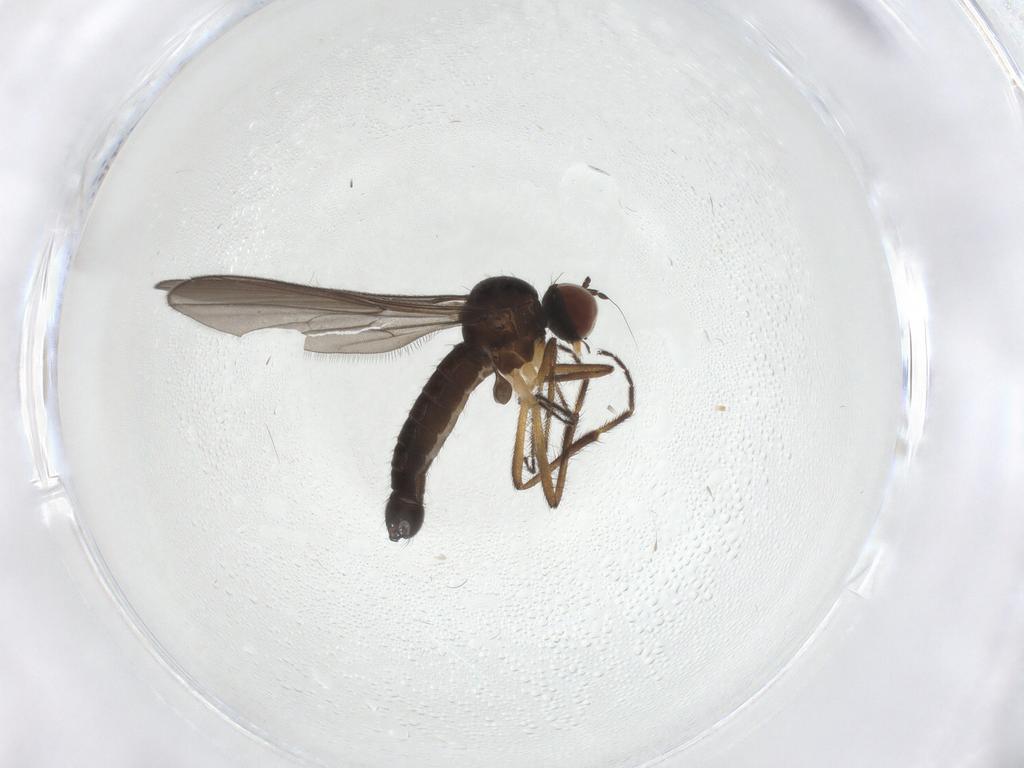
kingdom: Animalia
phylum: Arthropoda
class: Insecta
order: Diptera
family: Hybotidae
